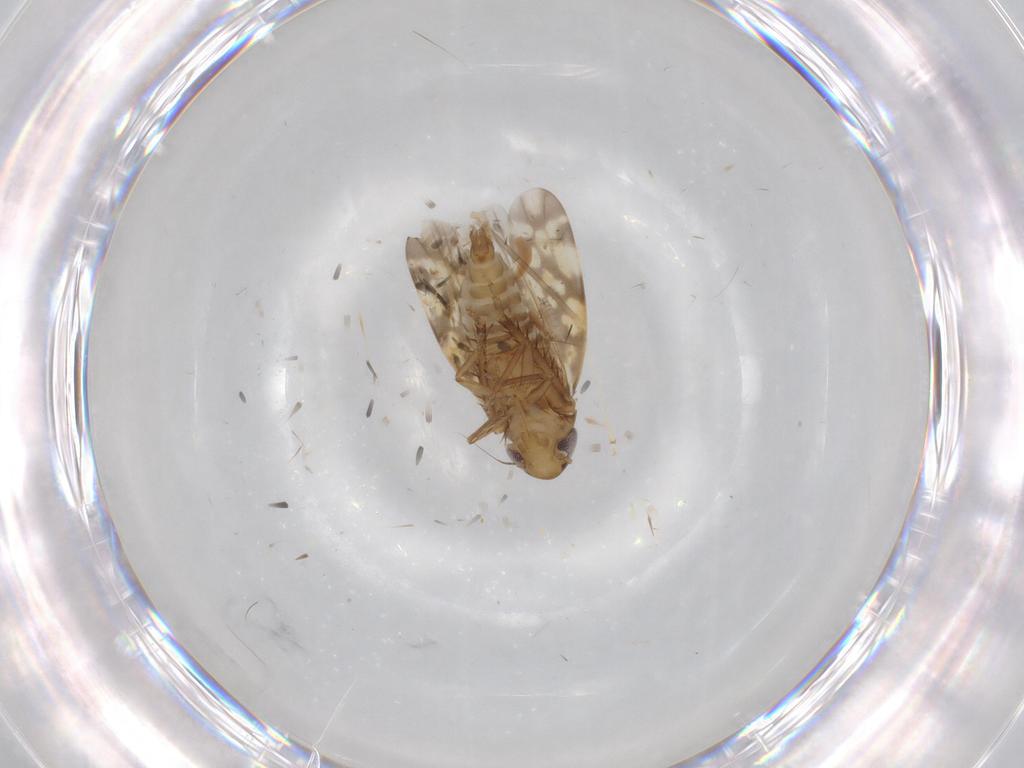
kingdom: Animalia
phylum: Arthropoda
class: Insecta
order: Hemiptera
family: Cicadellidae
